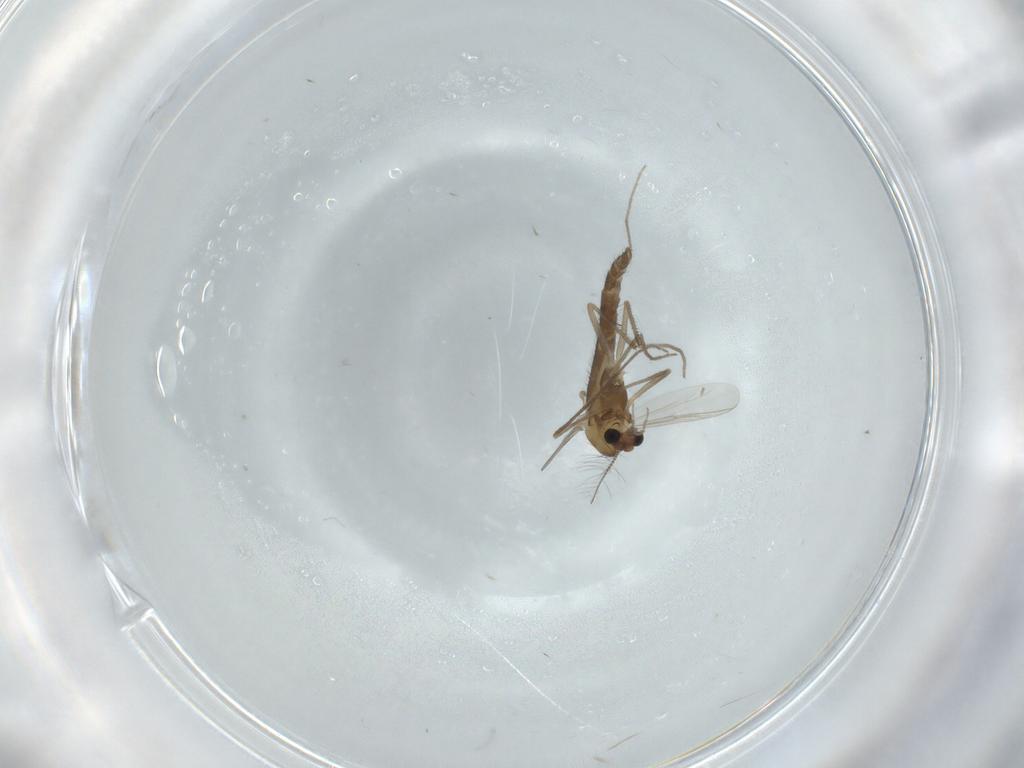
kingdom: Animalia
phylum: Arthropoda
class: Insecta
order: Diptera
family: Chironomidae
